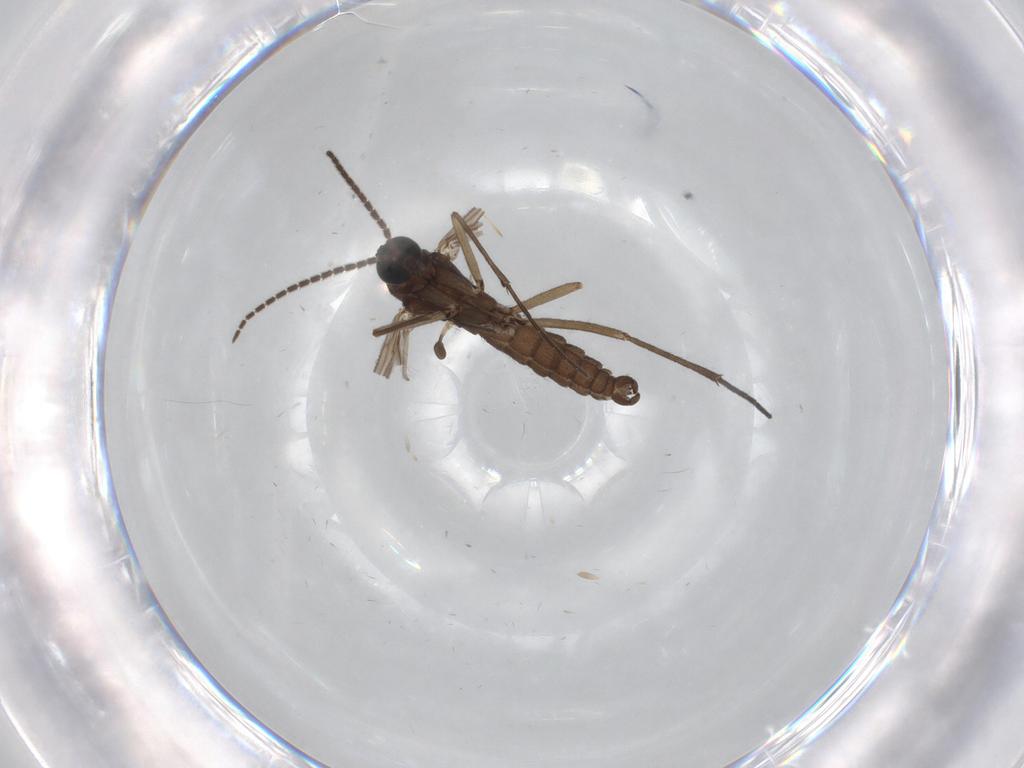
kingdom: Animalia
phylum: Arthropoda
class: Insecta
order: Diptera
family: Sciaridae
